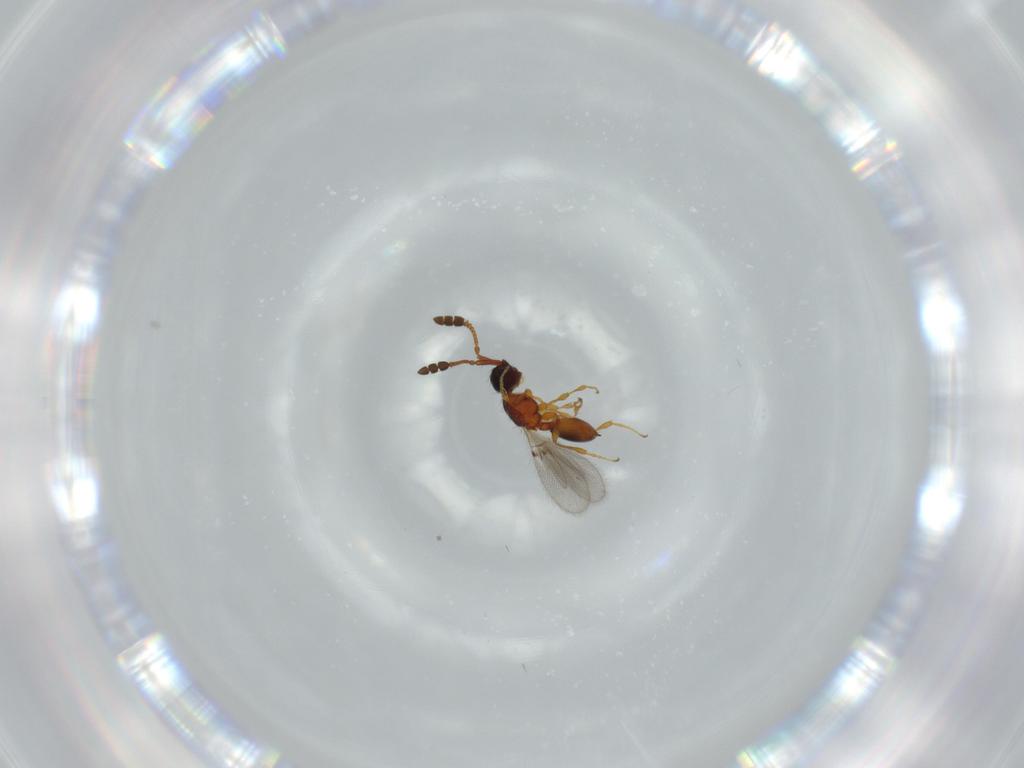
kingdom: Animalia
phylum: Arthropoda
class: Insecta
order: Hymenoptera
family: Diapriidae
